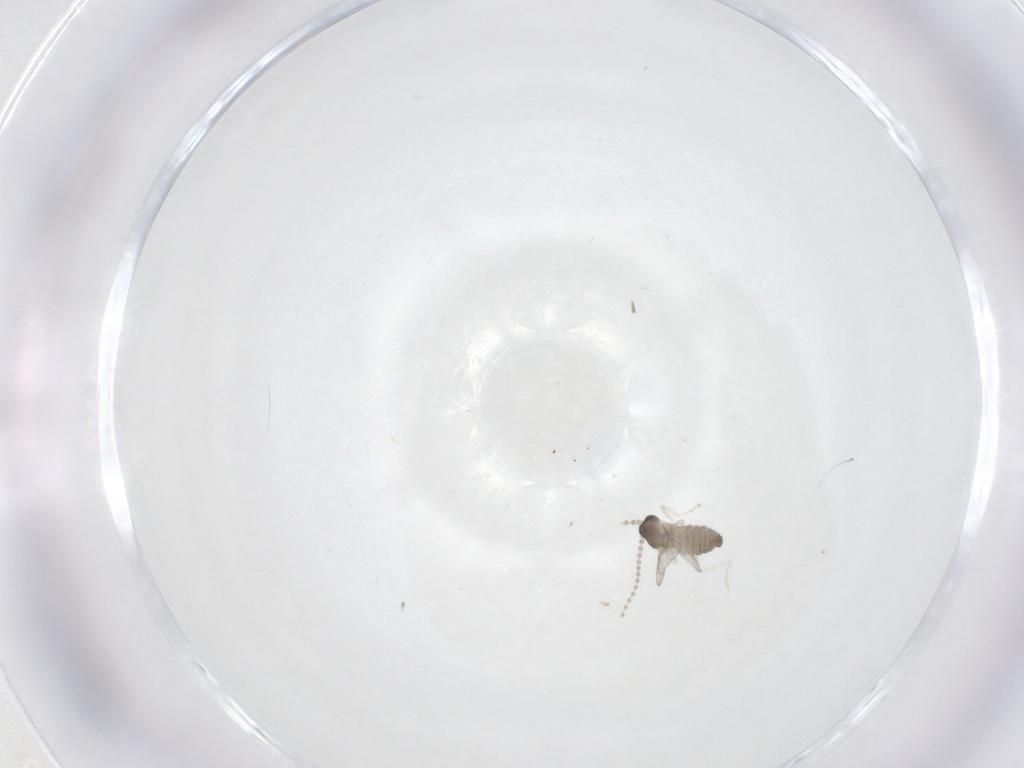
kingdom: Animalia
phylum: Arthropoda
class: Insecta
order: Diptera
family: Cecidomyiidae
